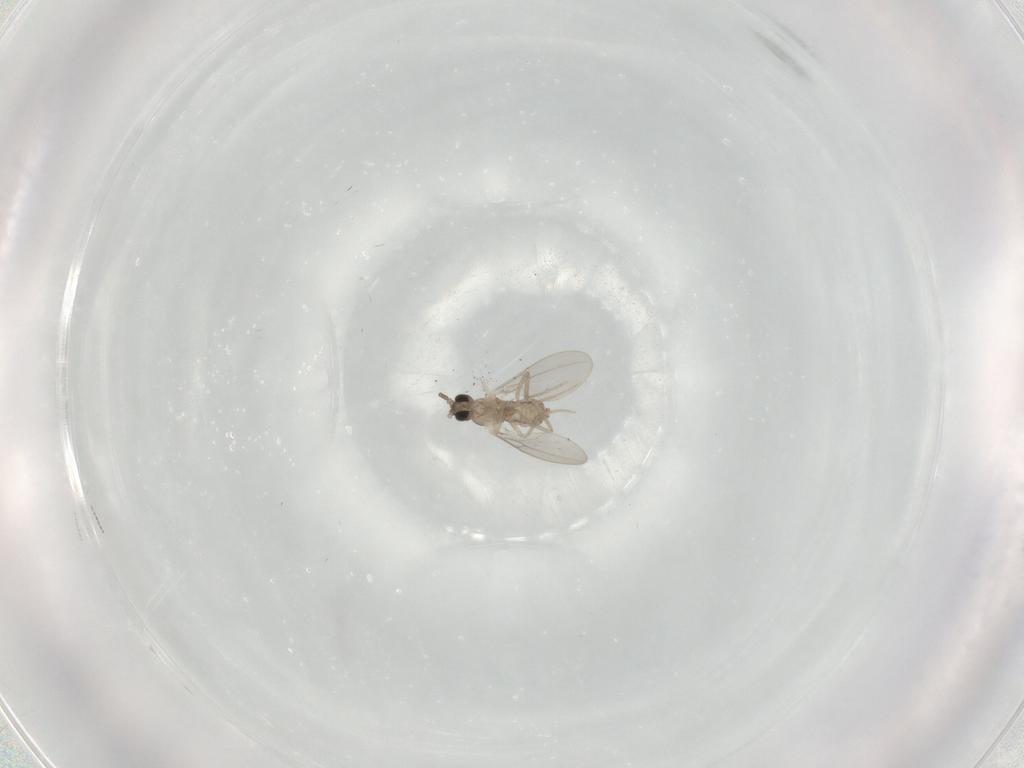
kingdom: Animalia
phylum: Arthropoda
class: Insecta
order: Diptera
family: Cecidomyiidae
